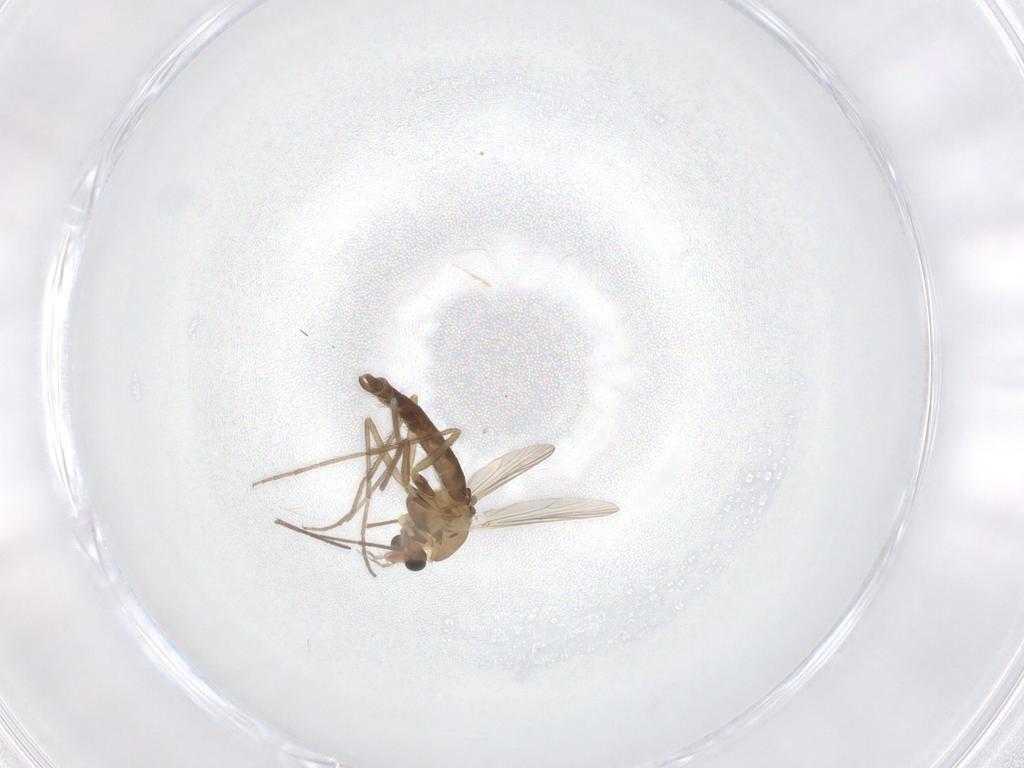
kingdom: Animalia
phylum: Arthropoda
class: Insecta
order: Diptera
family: Chironomidae
